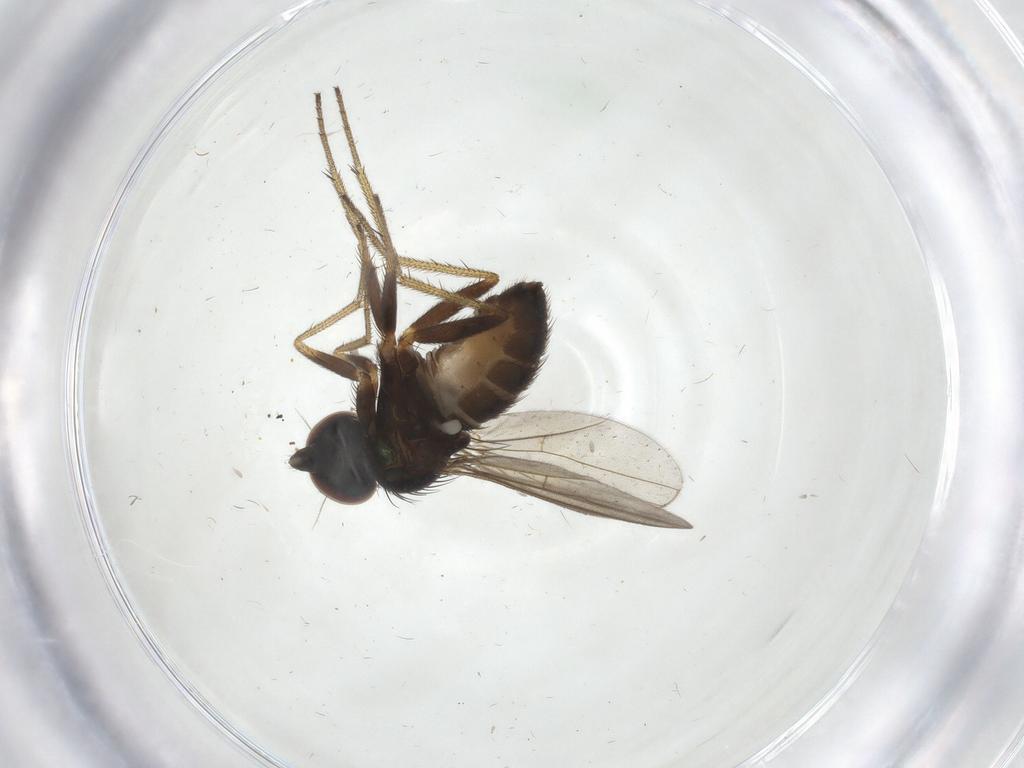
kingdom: Animalia
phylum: Arthropoda
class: Insecta
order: Diptera
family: Dolichopodidae
